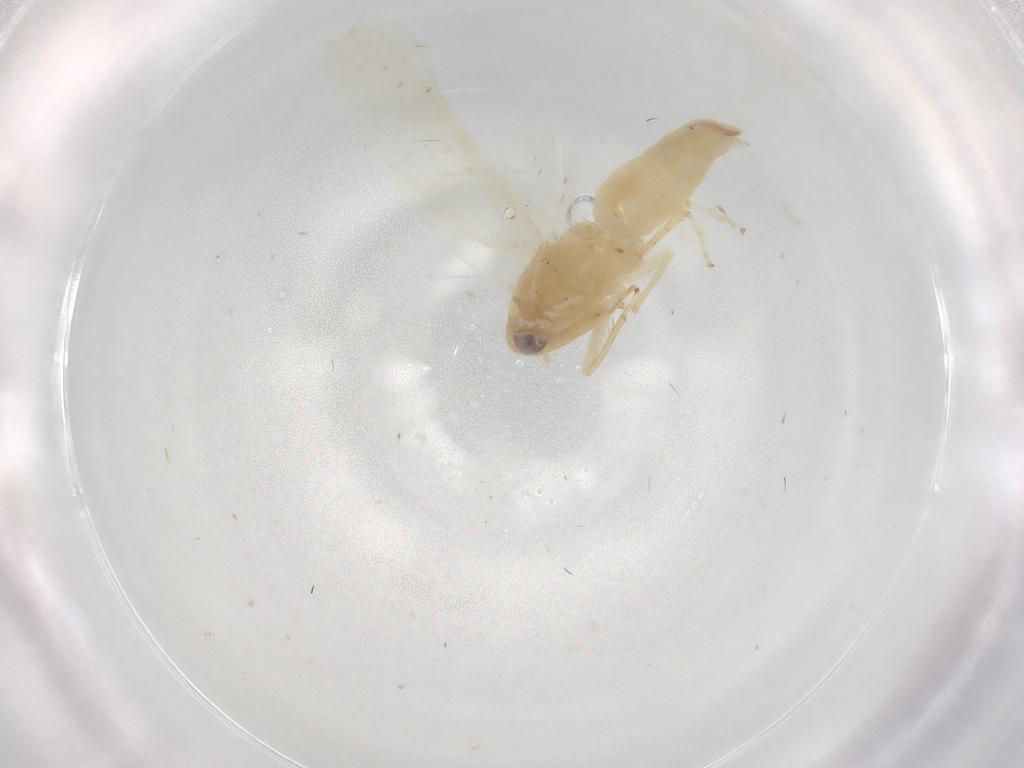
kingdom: Animalia
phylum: Arthropoda
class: Insecta
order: Hemiptera
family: Cicadellidae
